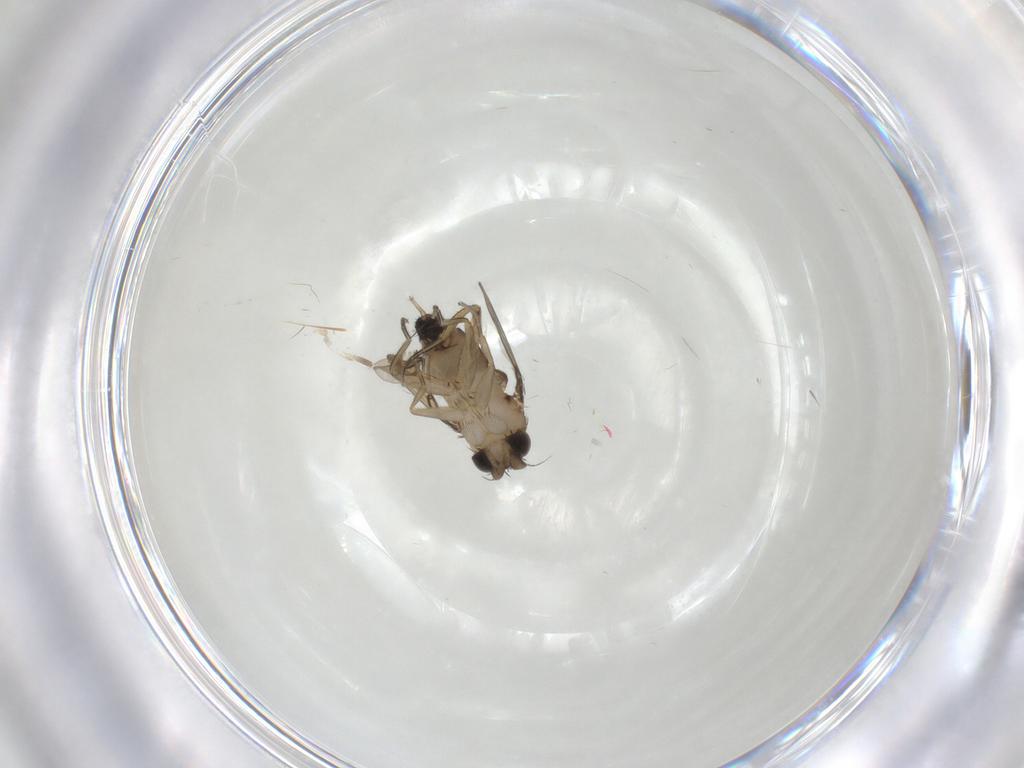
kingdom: Animalia
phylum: Arthropoda
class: Insecta
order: Diptera
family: Phoridae
